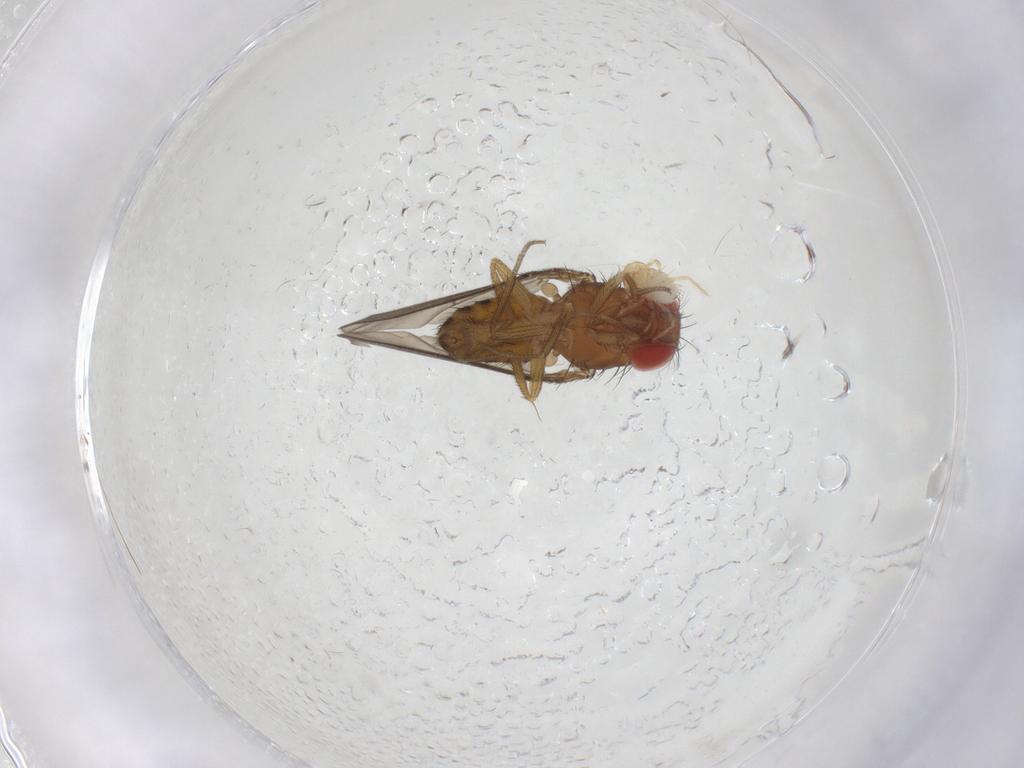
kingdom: Animalia
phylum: Arthropoda
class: Insecta
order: Diptera
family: Drosophilidae
